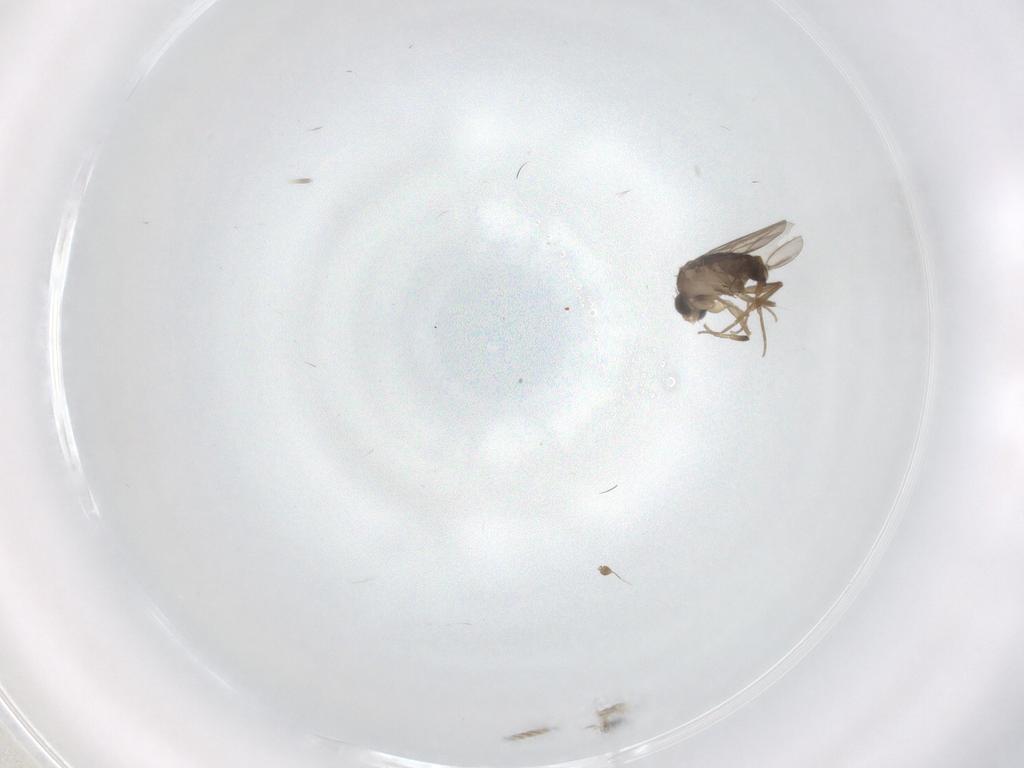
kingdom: Animalia
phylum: Arthropoda
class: Insecta
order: Diptera
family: Phoridae
